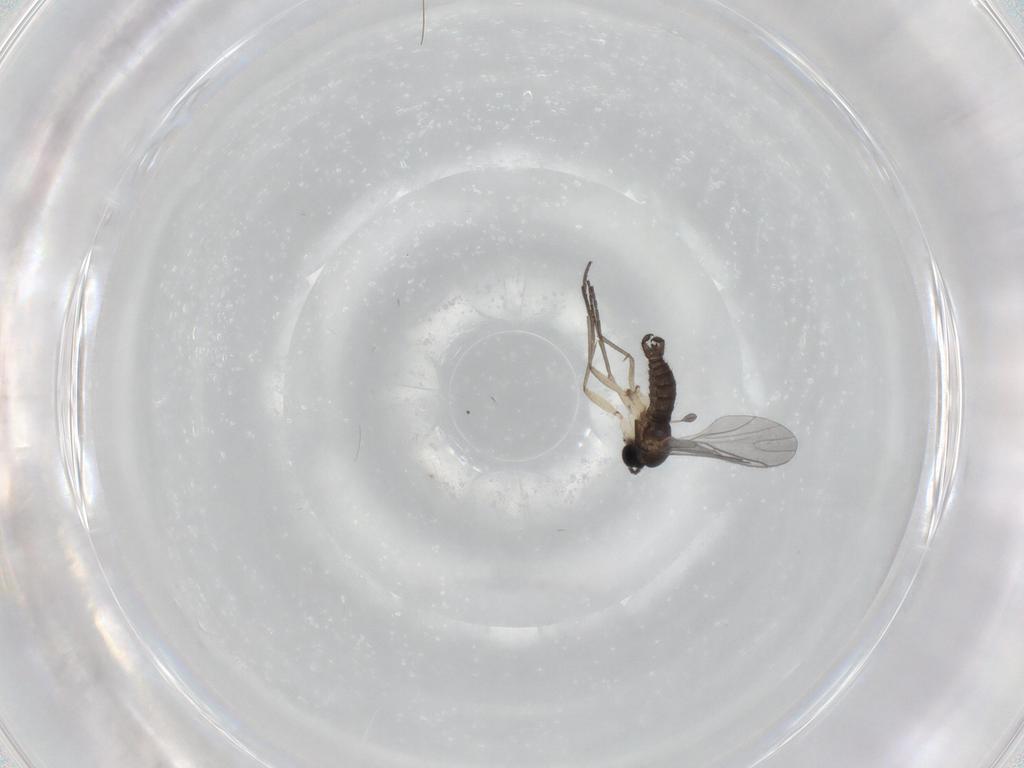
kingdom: Animalia
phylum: Arthropoda
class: Insecta
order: Diptera
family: Sciaridae
